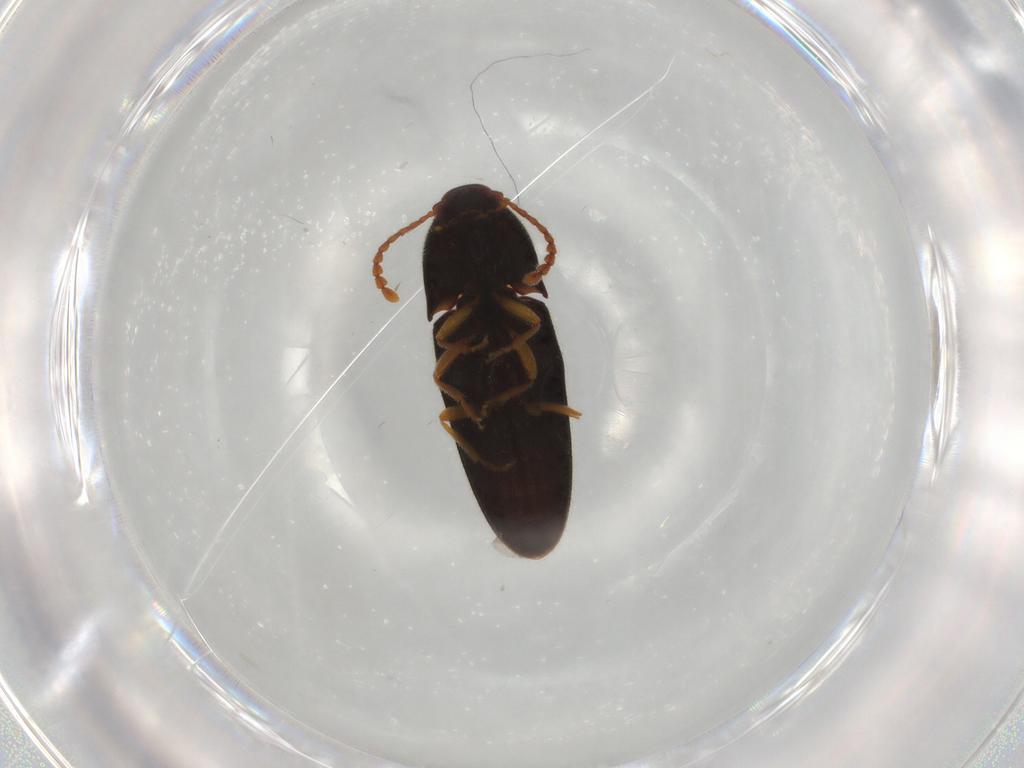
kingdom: Animalia
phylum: Arthropoda
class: Insecta
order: Coleoptera
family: Elateridae
